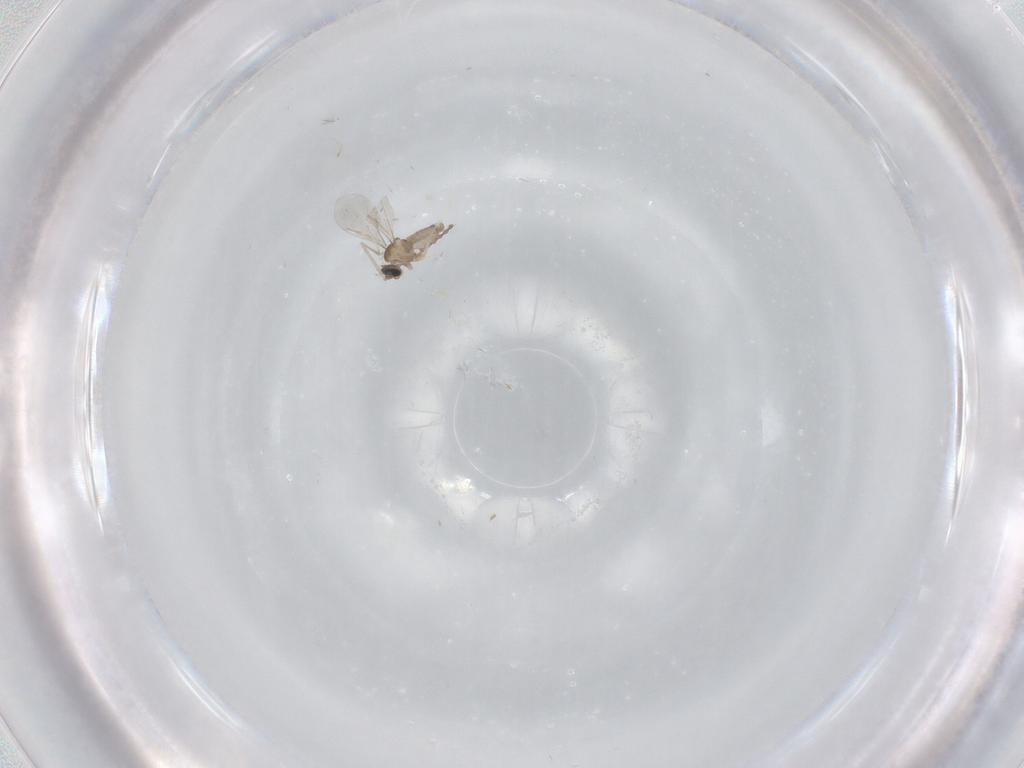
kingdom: Animalia
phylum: Arthropoda
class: Insecta
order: Diptera
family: Cecidomyiidae
